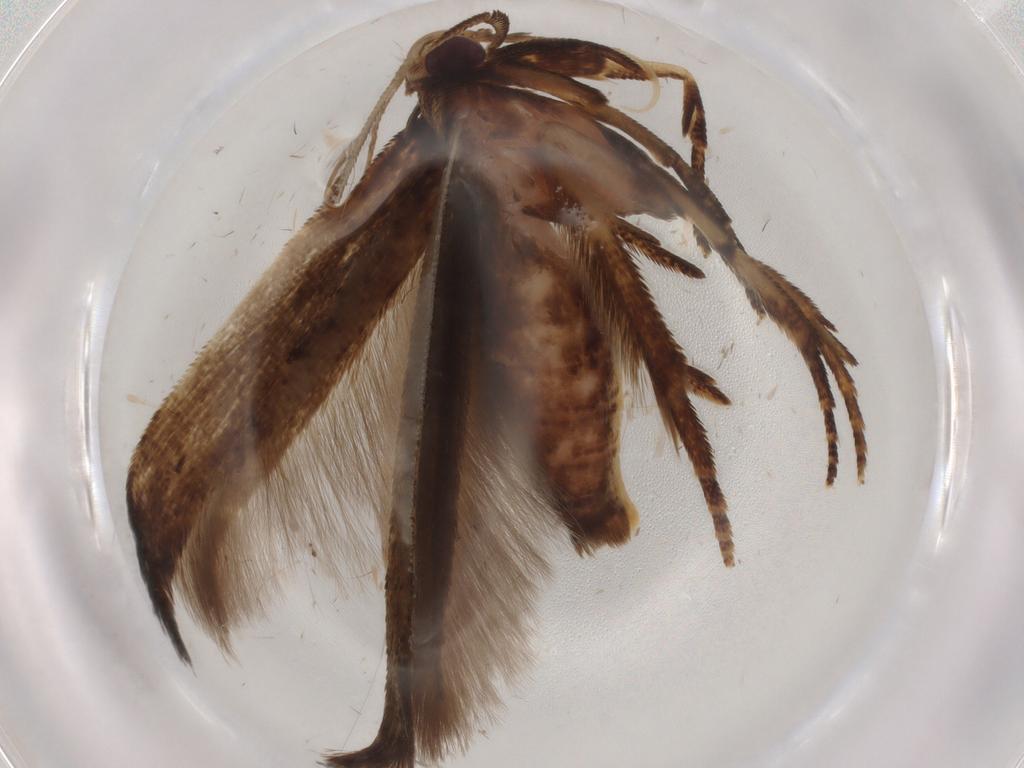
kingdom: Animalia
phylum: Arthropoda
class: Insecta
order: Lepidoptera
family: Cosmopterigidae
